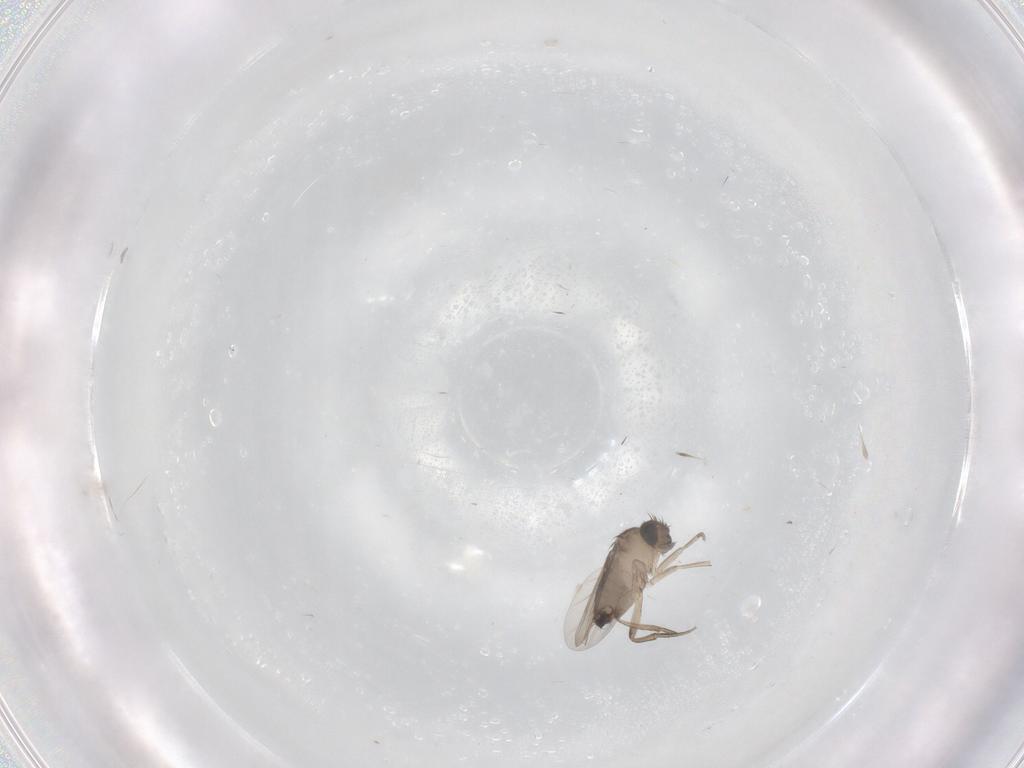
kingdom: Animalia
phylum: Arthropoda
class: Insecta
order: Diptera
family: Phoridae
